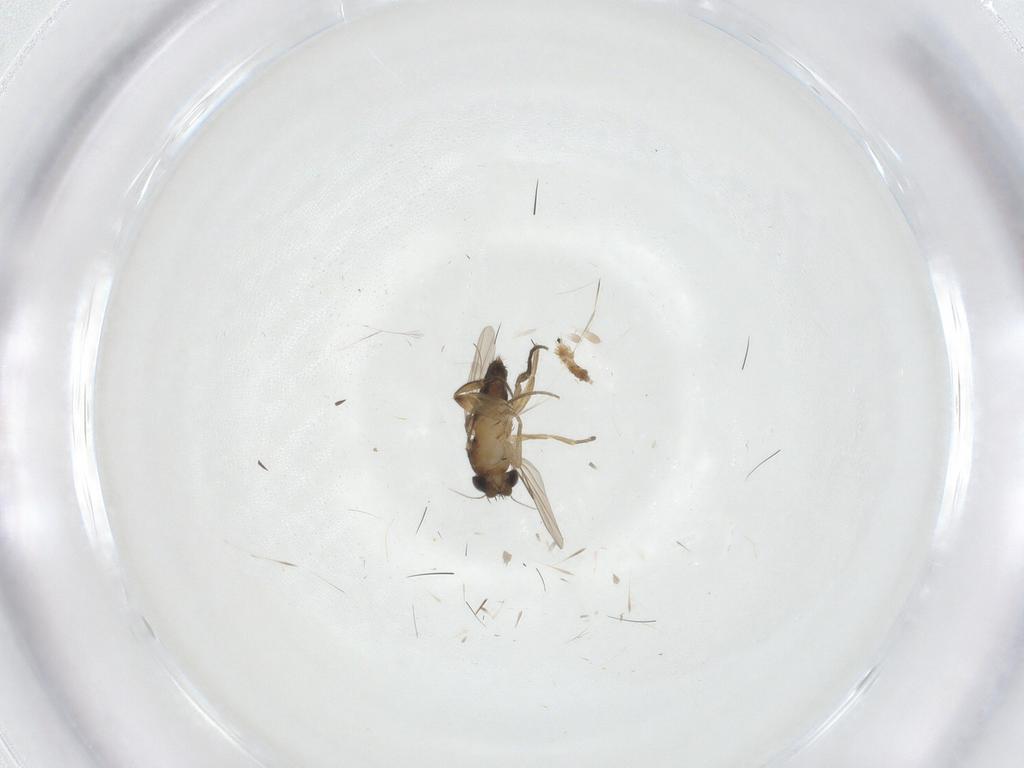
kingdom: Animalia
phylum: Arthropoda
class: Insecta
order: Diptera
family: Phoridae
